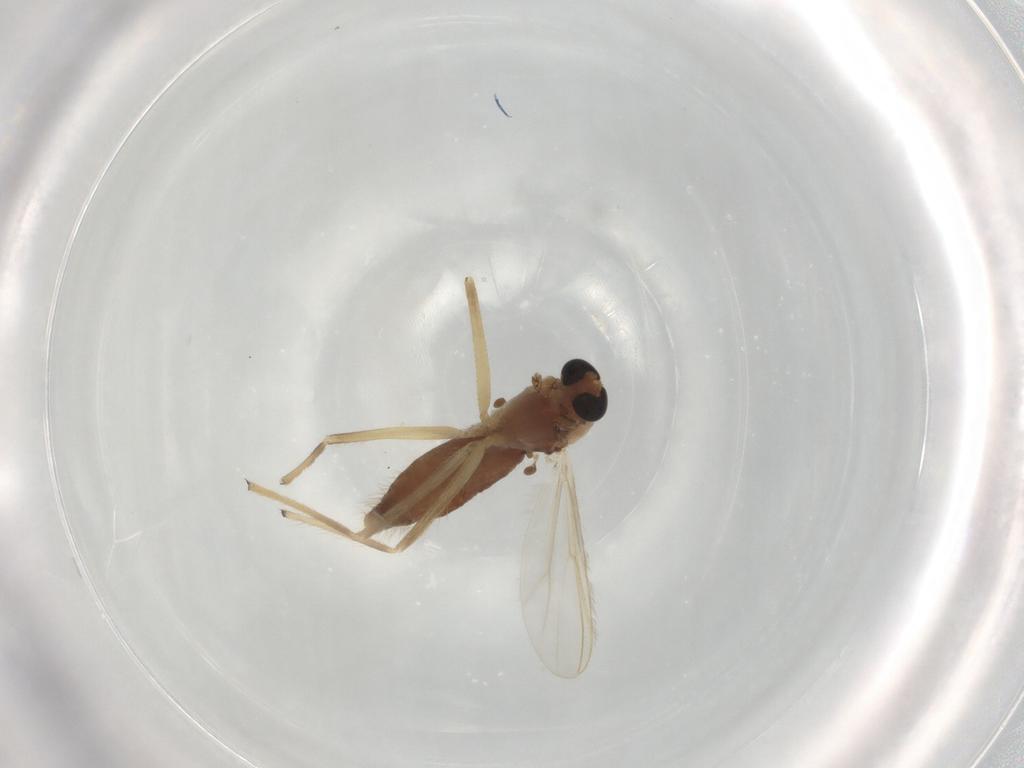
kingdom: Animalia
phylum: Arthropoda
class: Insecta
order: Diptera
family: Chironomidae
